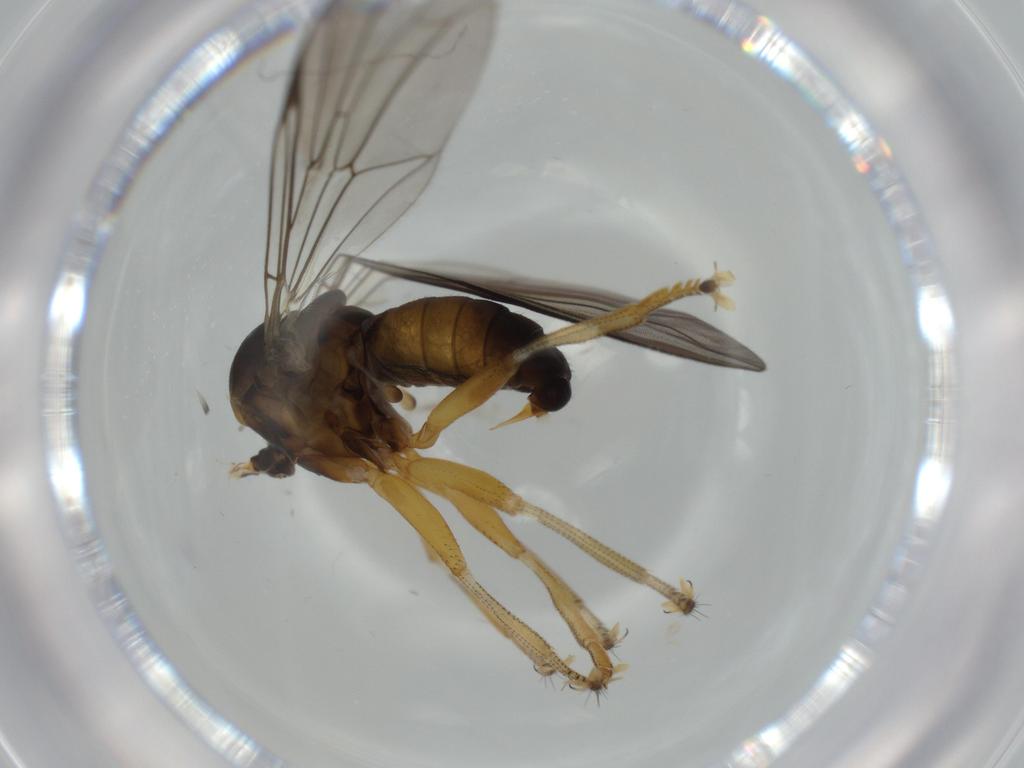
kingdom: Animalia
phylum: Arthropoda
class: Insecta
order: Diptera
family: Pipunculidae
